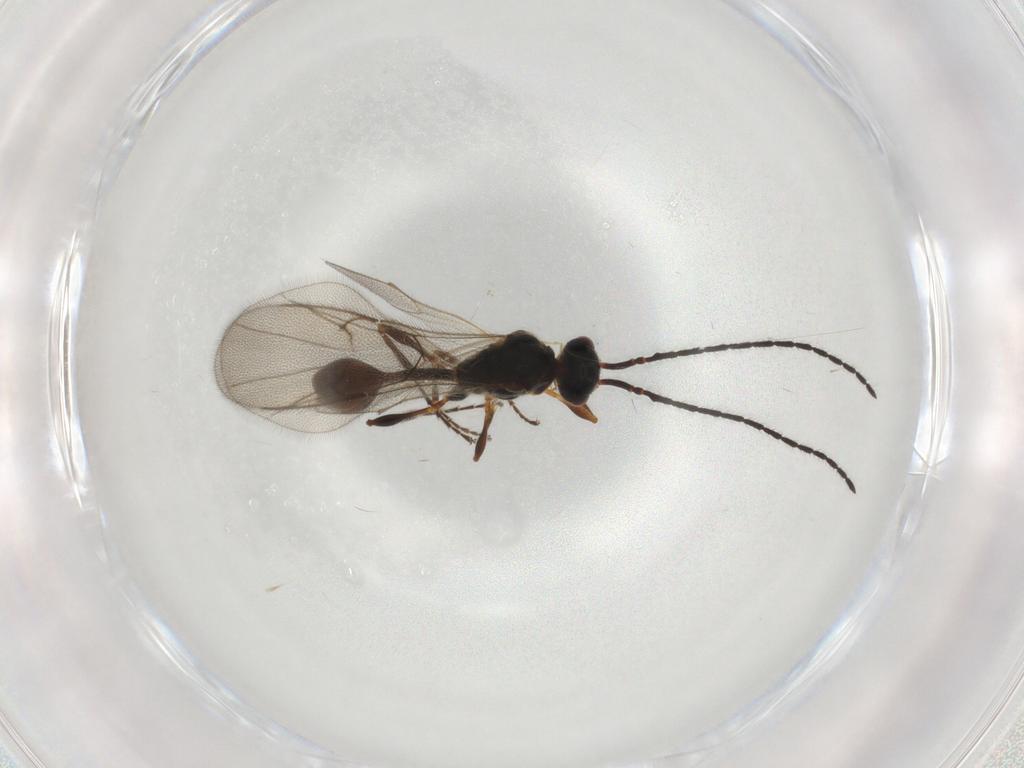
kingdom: Animalia
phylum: Arthropoda
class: Insecta
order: Hymenoptera
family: Diapriidae
